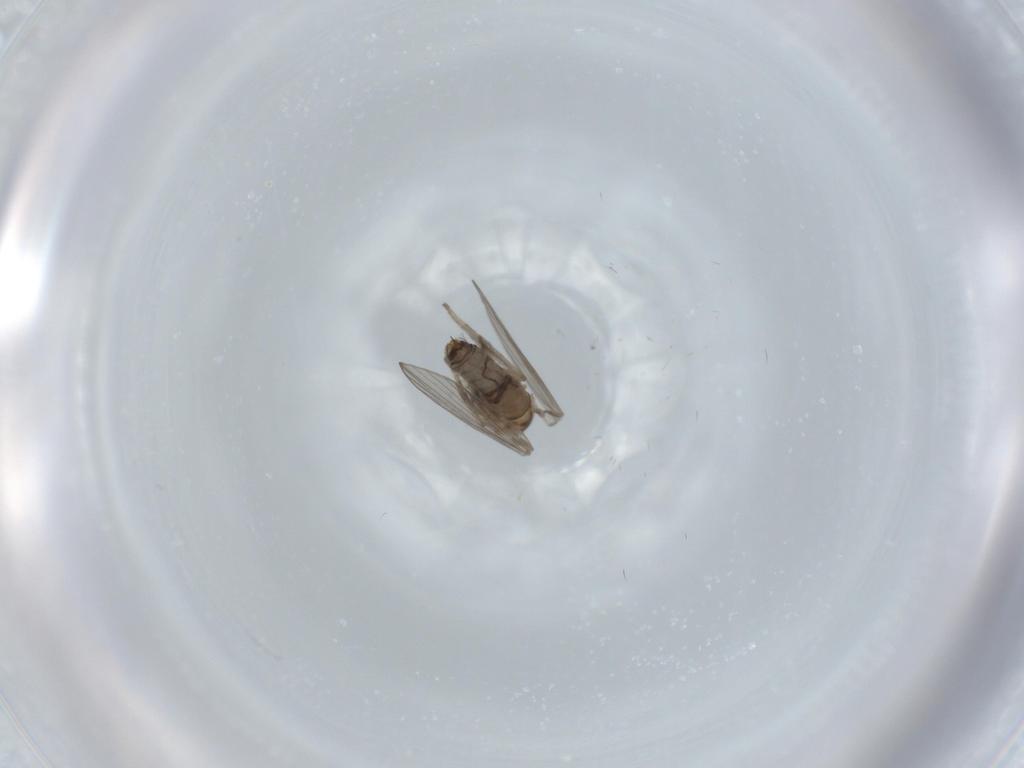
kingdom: Animalia
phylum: Arthropoda
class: Insecta
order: Diptera
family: Psychodidae
